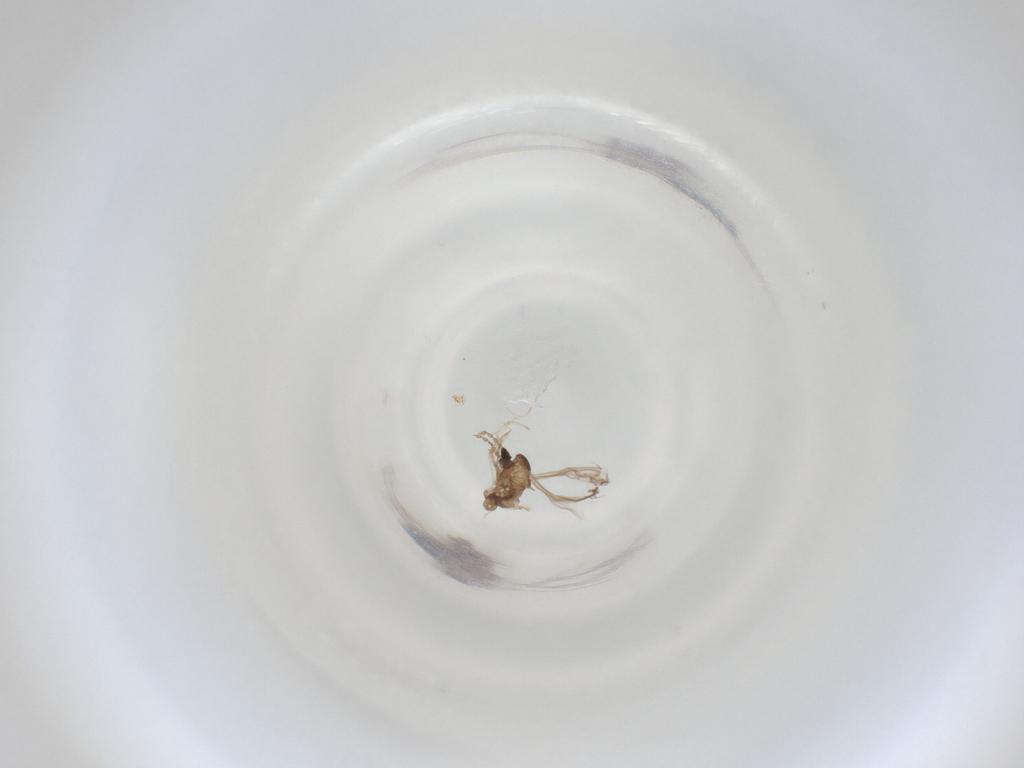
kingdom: Animalia
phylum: Arthropoda
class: Insecta
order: Diptera
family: Cecidomyiidae
